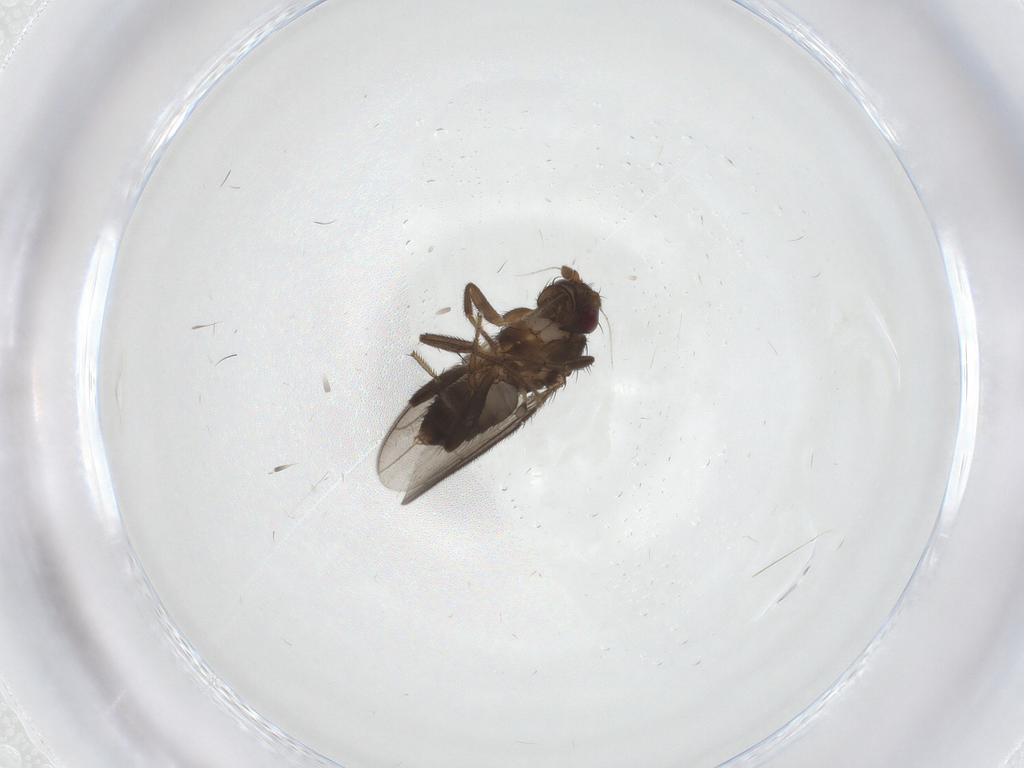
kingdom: Animalia
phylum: Arthropoda
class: Insecta
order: Diptera
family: Sphaeroceridae
